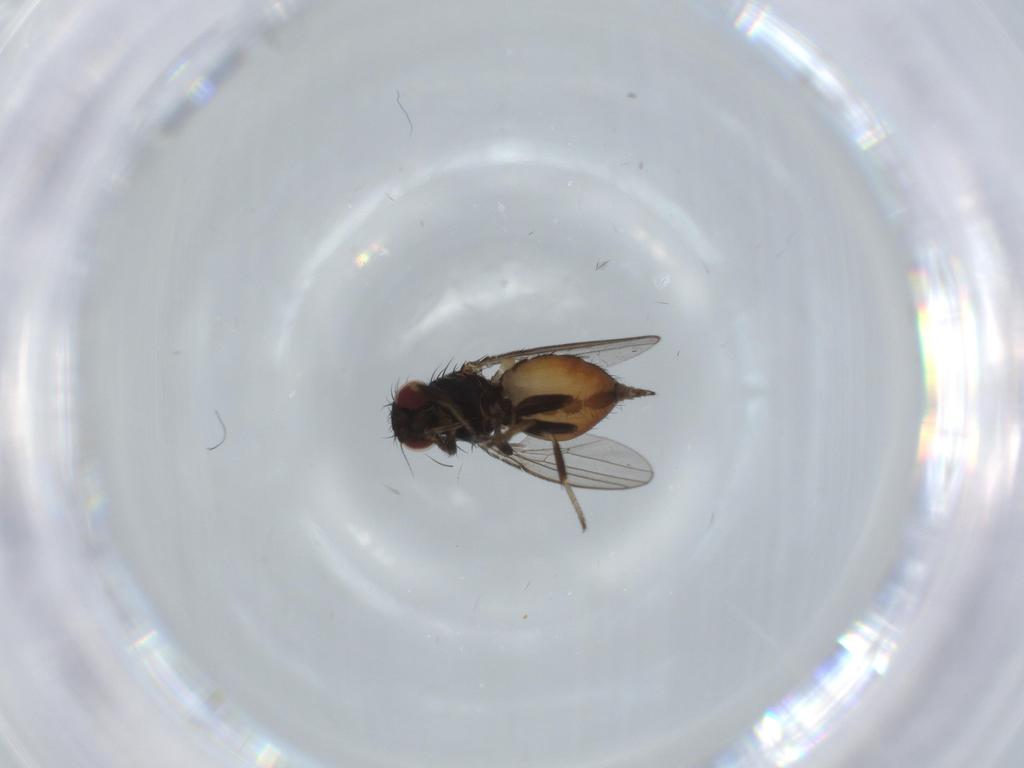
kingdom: Animalia
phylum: Arthropoda
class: Insecta
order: Diptera
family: Milichiidae
